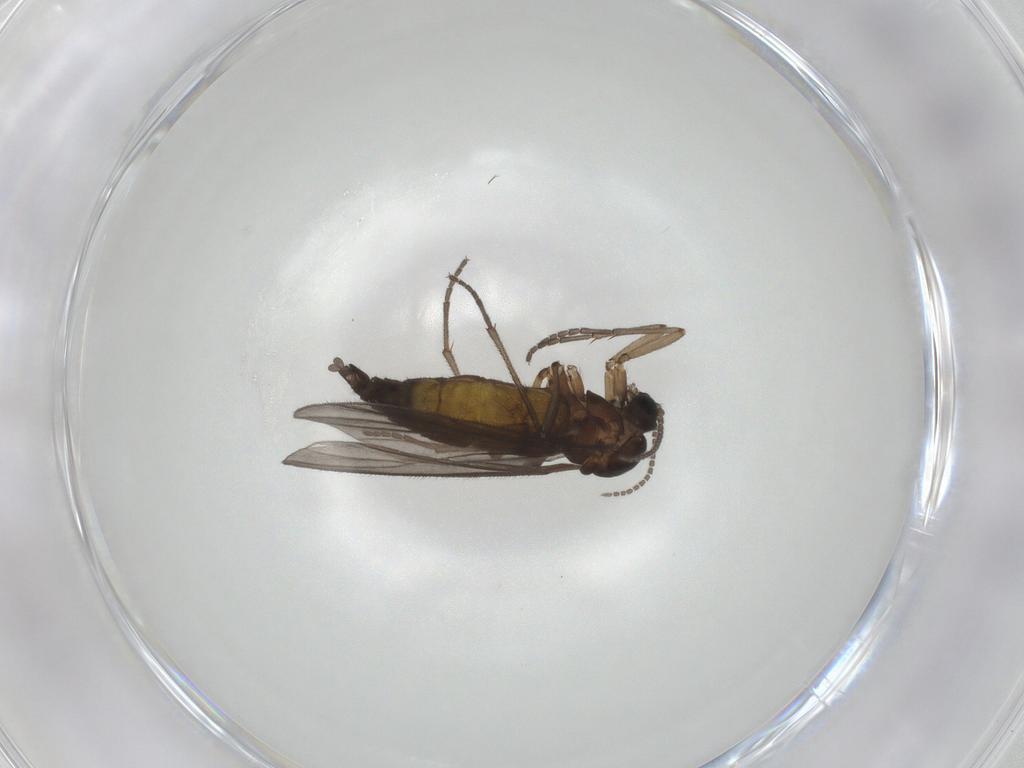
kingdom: Animalia
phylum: Arthropoda
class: Insecta
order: Diptera
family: Sciaridae
